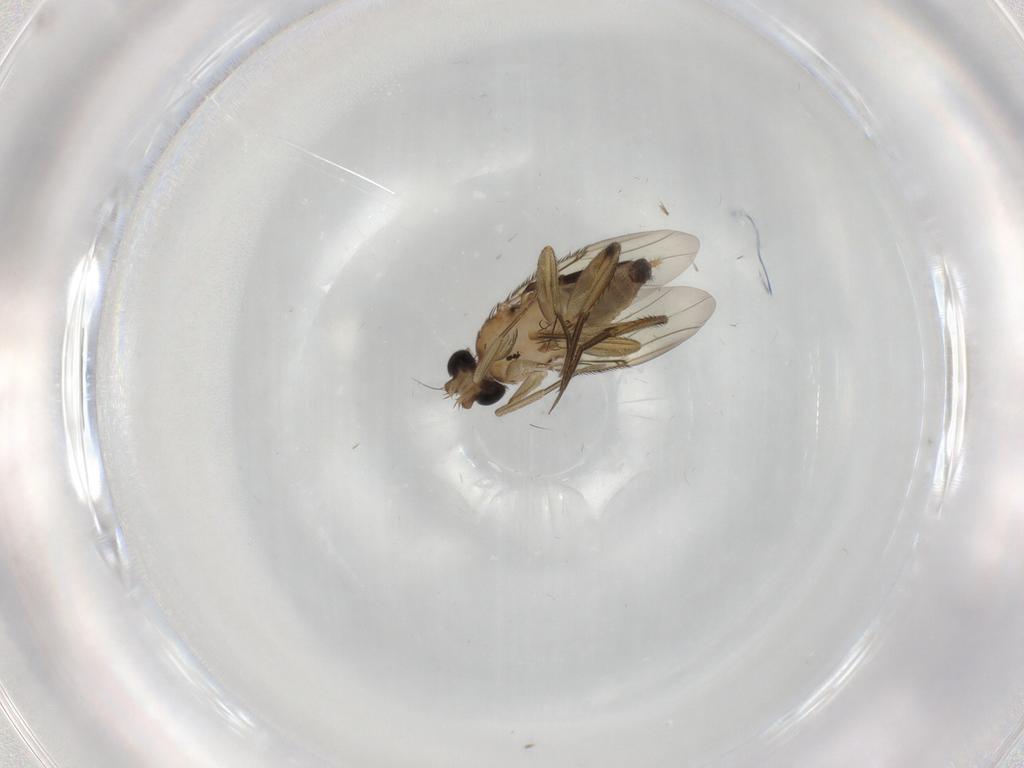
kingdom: Animalia
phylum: Arthropoda
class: Insecta
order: Diptera
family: Phoridae
